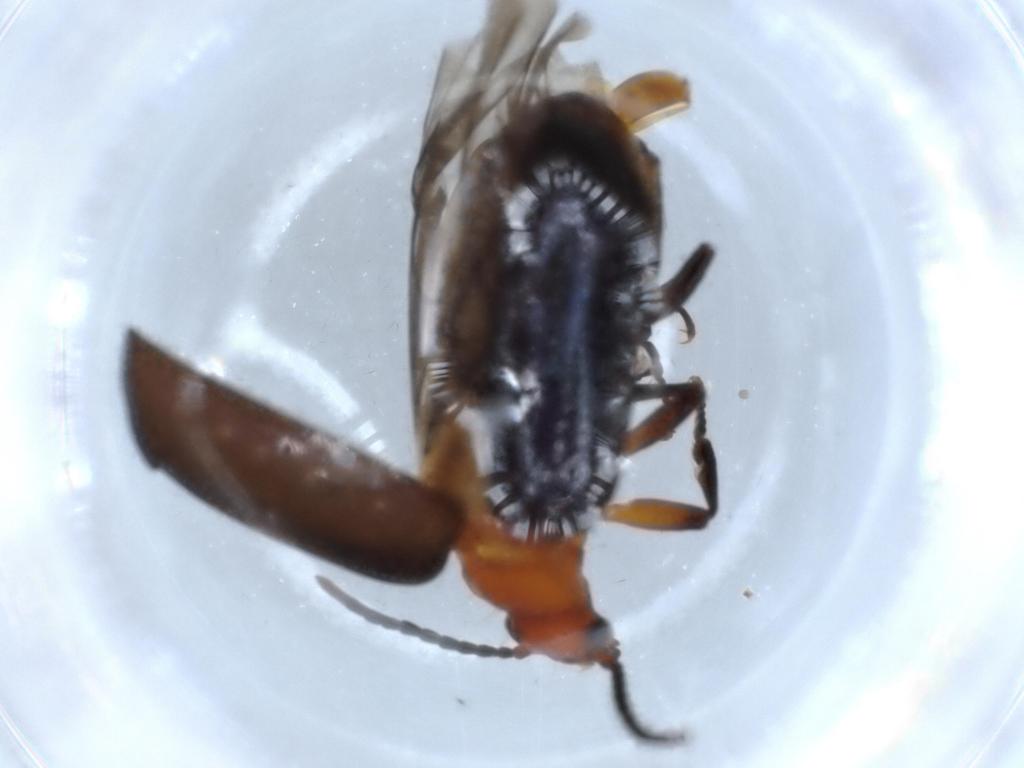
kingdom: Animalia
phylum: Arthropoda
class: Insecta
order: Coleoptera
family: Carabidae
